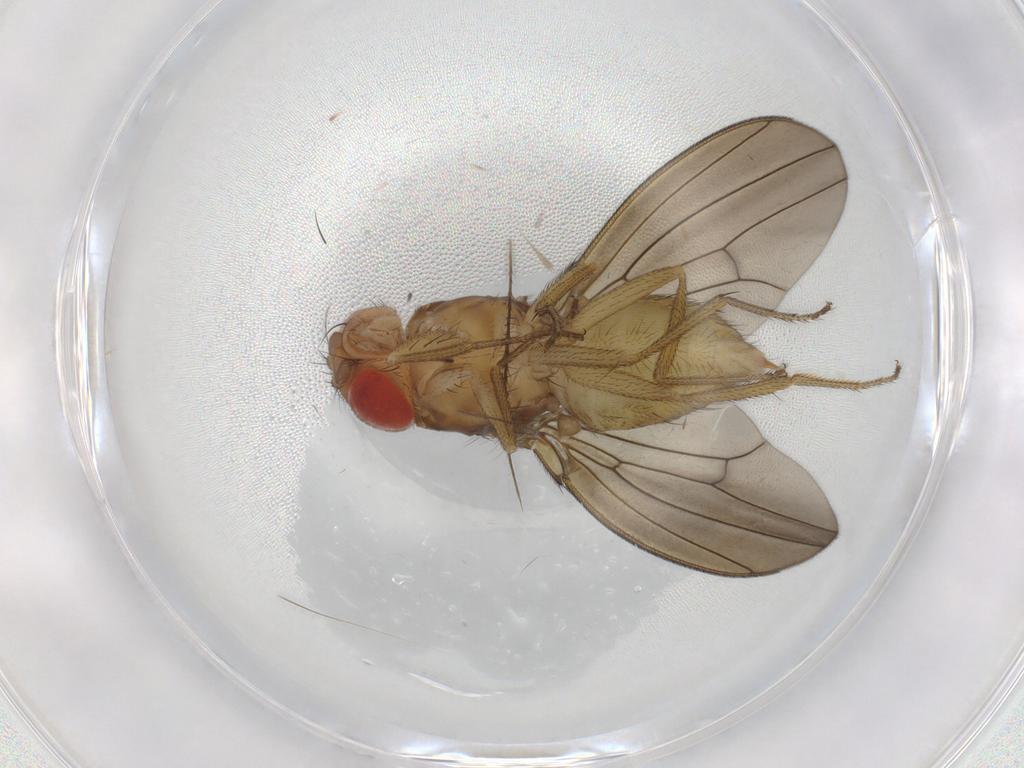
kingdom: Animalia
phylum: Arthropoda
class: Insecta
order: Diptera
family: Drosophilidae
